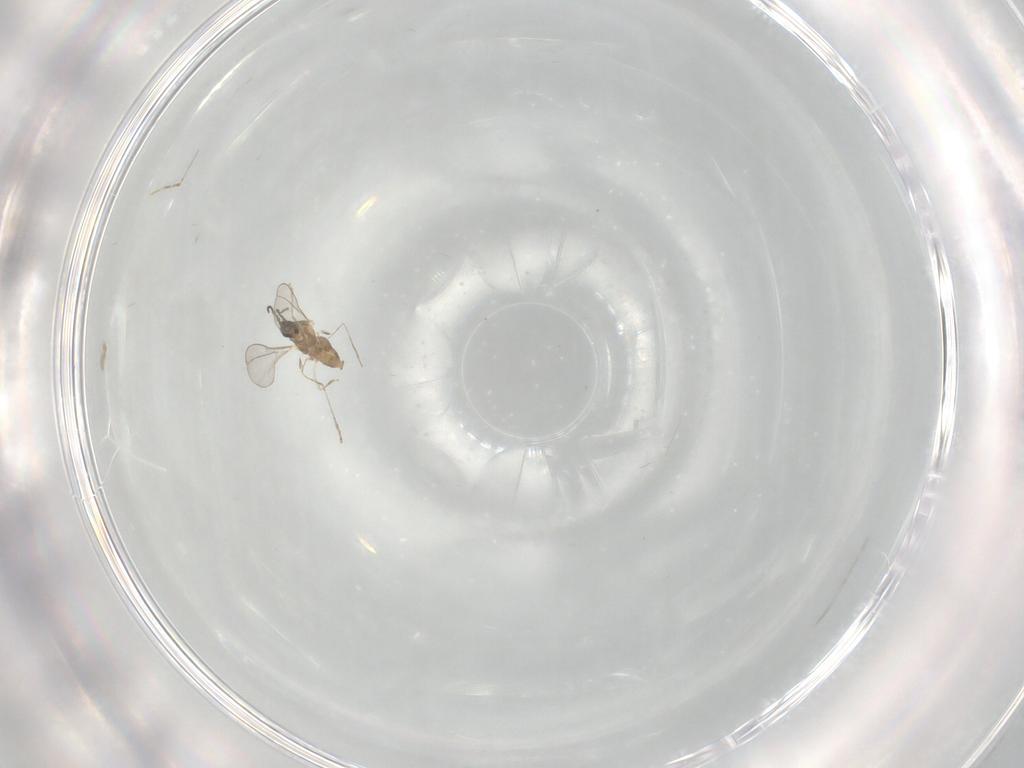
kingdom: Animalia
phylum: Arthropoda
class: Insecta
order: Diptera
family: Cecidomyiidae
